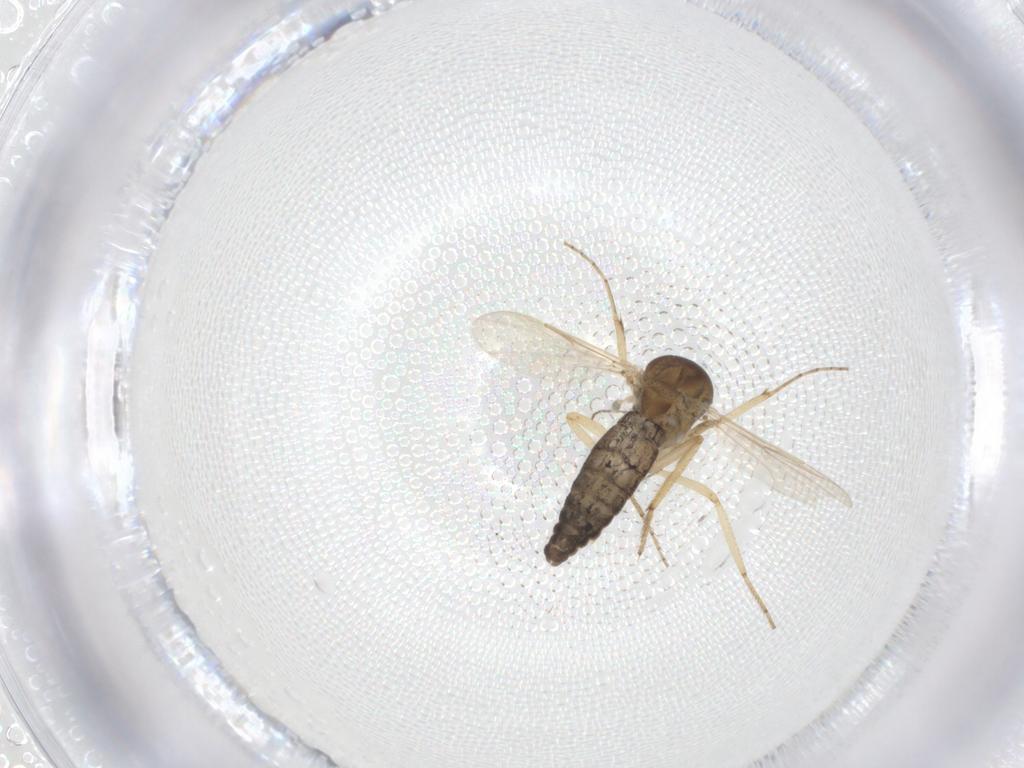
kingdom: Animalia
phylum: Arthropoda
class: Insecta
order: Diptera
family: Ceratopogonidae
